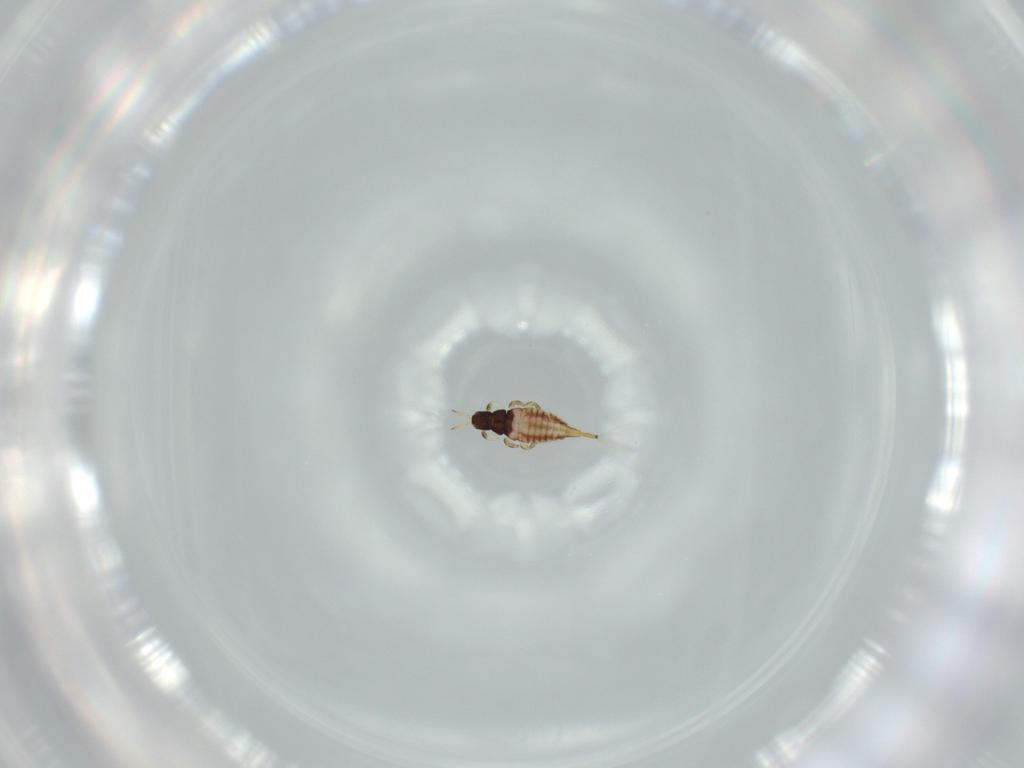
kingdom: Animalia
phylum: Arthropoda
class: Insecta
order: Thysanoptera
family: Phlaeothripidae
